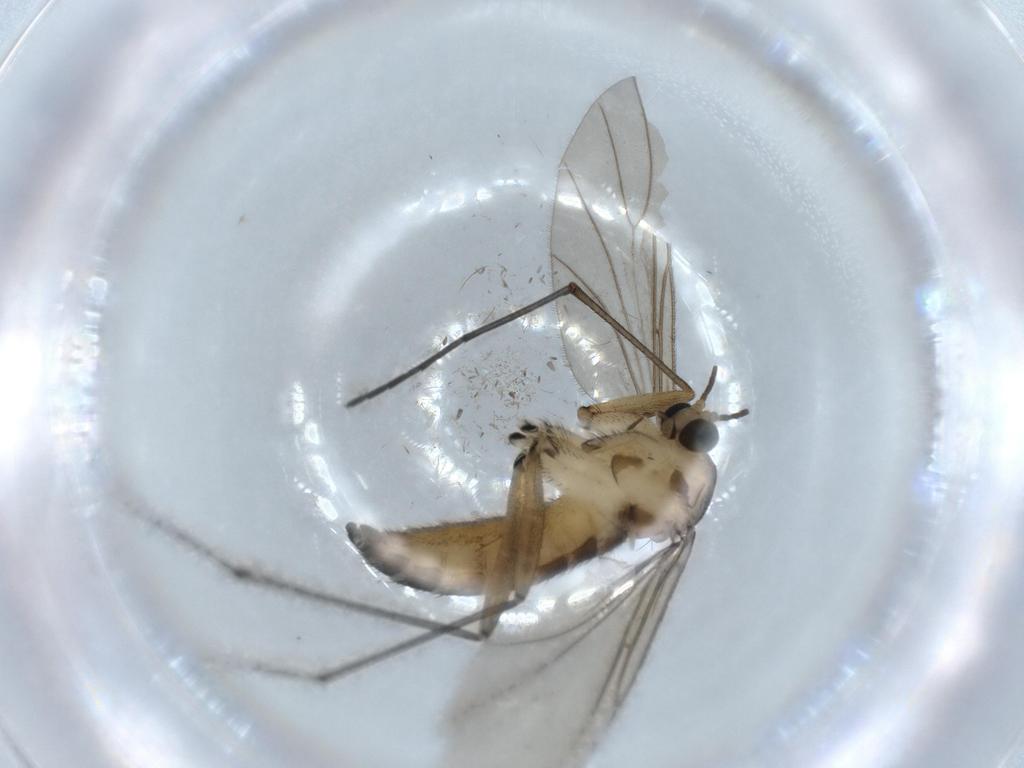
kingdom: Animalia
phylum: Arthropoda
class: Insecta
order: Diptera
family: Sciaridae
